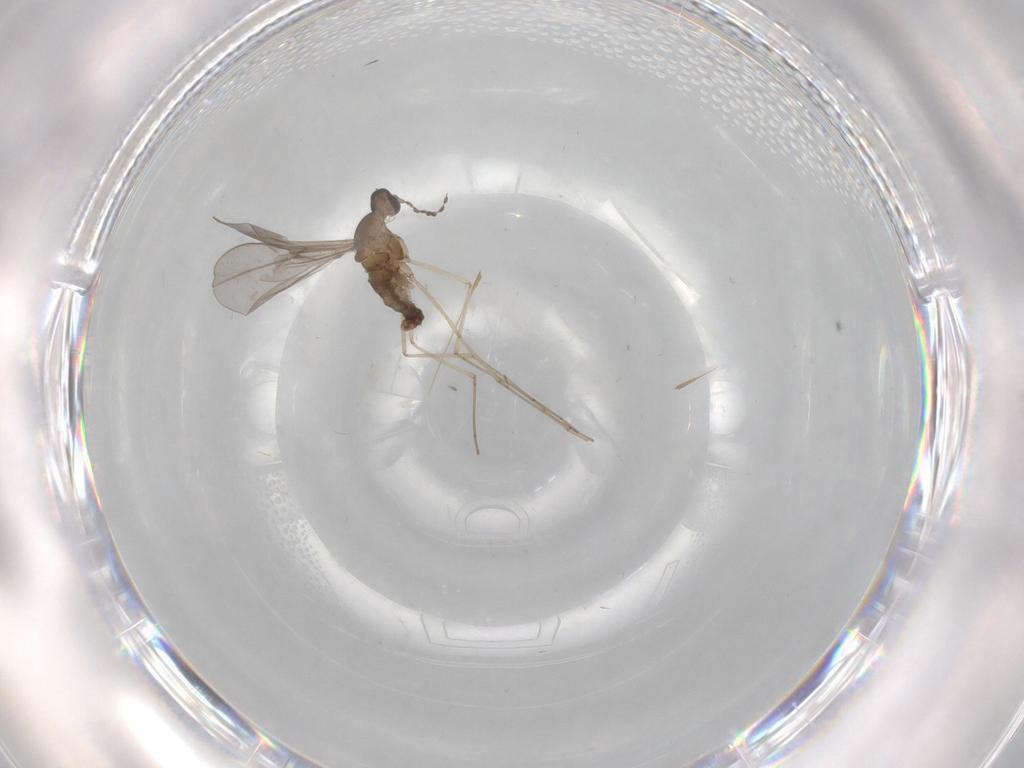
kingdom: Animalia
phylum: Arthropoda
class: Insecta
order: Diptera
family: Cecidomyiidae
